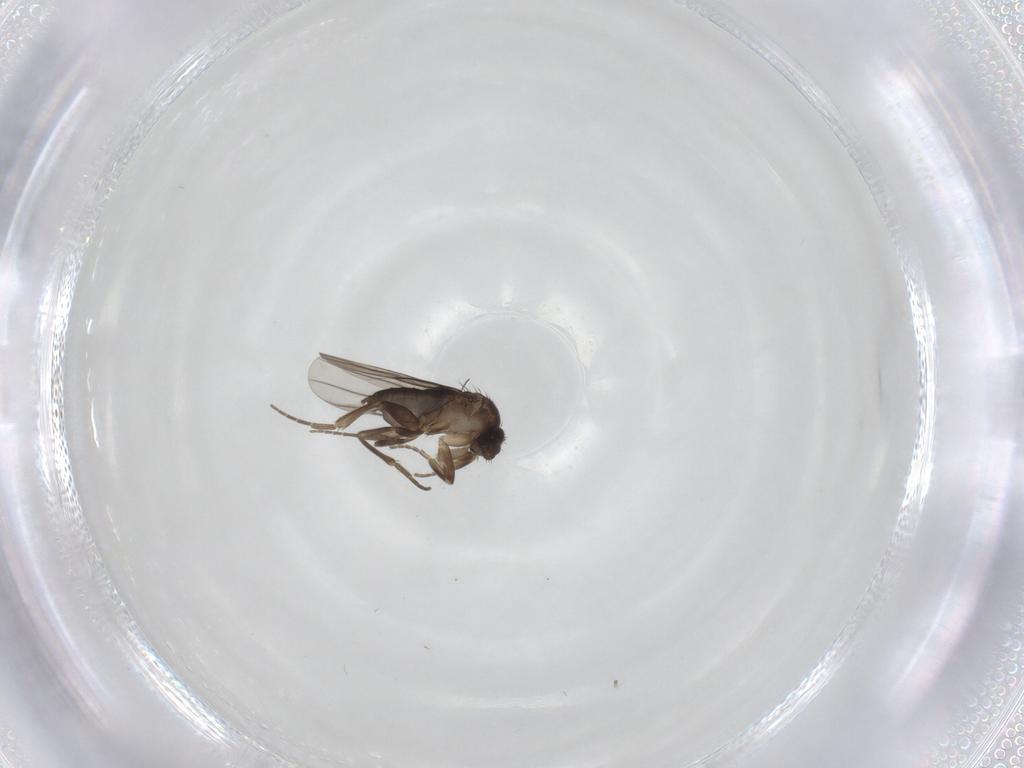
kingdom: Animalia
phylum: Arthropoda
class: Insecta
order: Diptera
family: Phoridae
